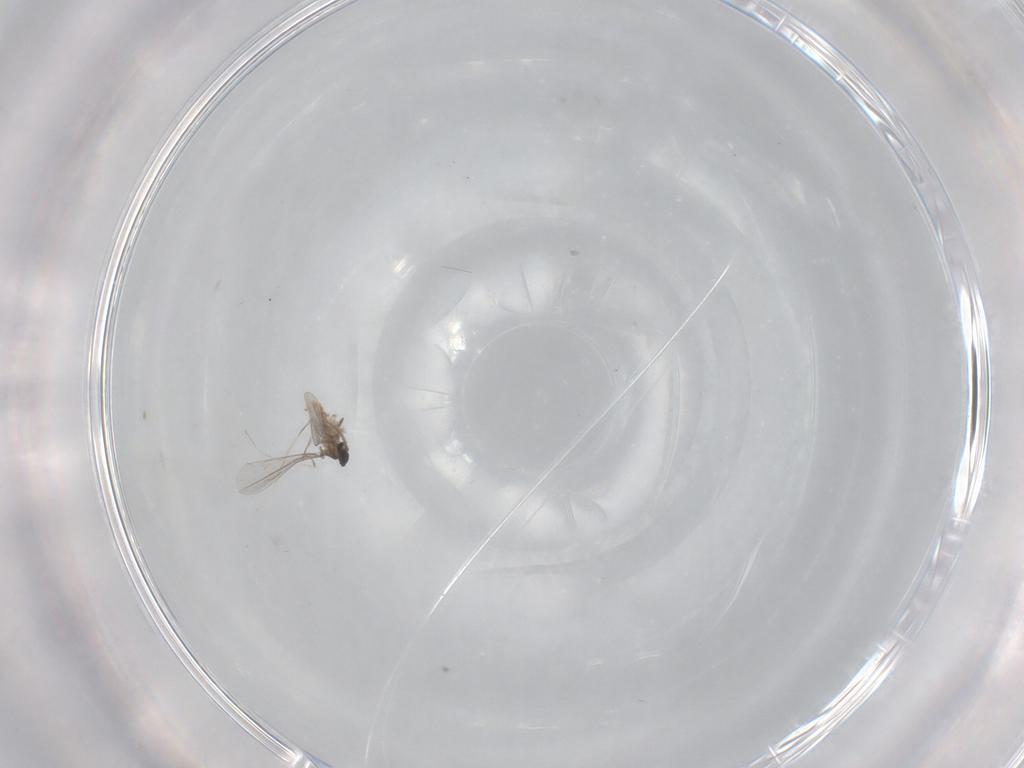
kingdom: Animalia
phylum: Arthropoda
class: Insecta
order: Diptera
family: Cecidomyiidae
